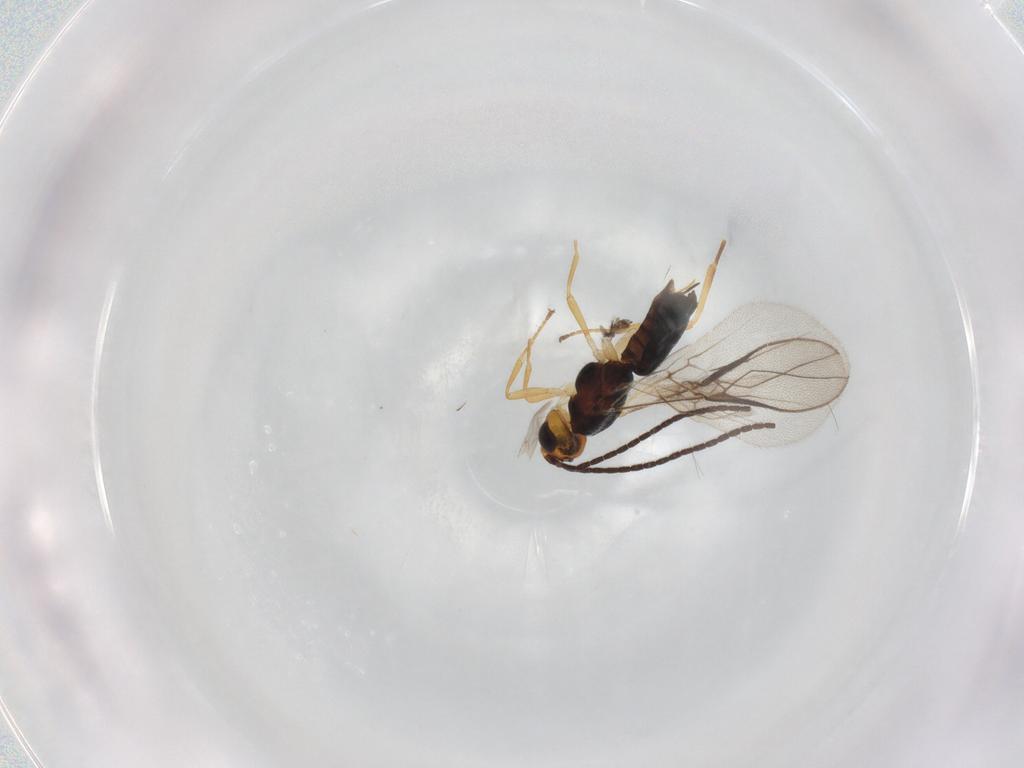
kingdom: Animalia
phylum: Arthropoda
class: Insecta
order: Hymenoptera
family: Braconidae
